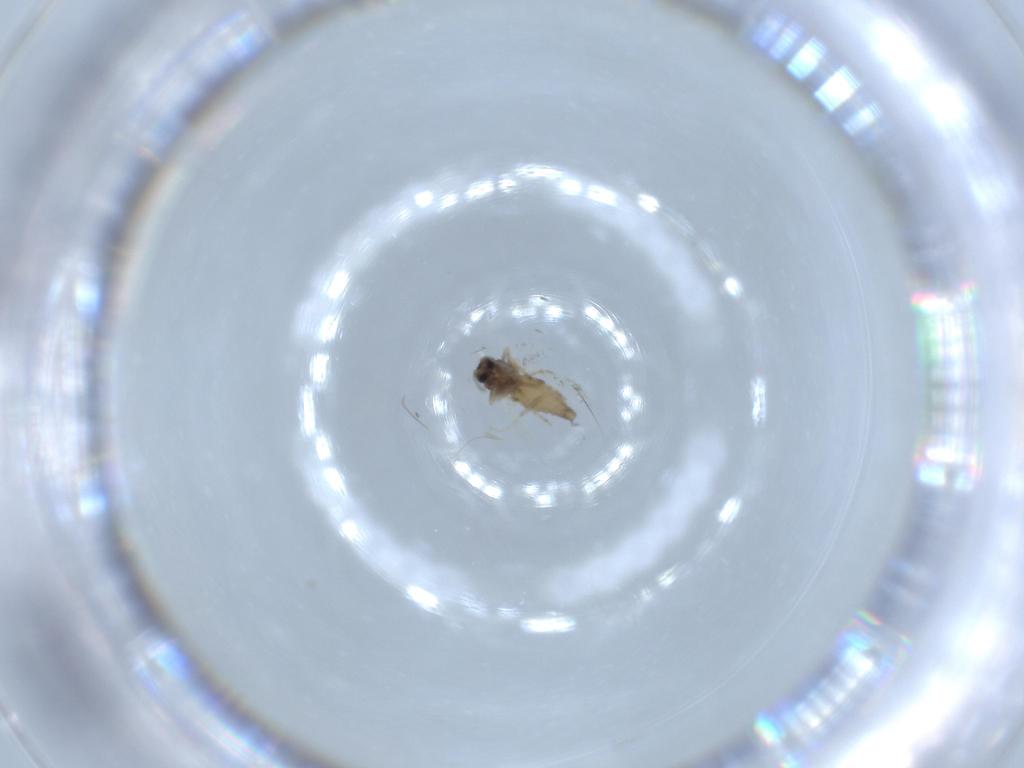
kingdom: Animalia
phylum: Arthropoda
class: Insecta
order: Diptera
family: Ceratopogonidae
